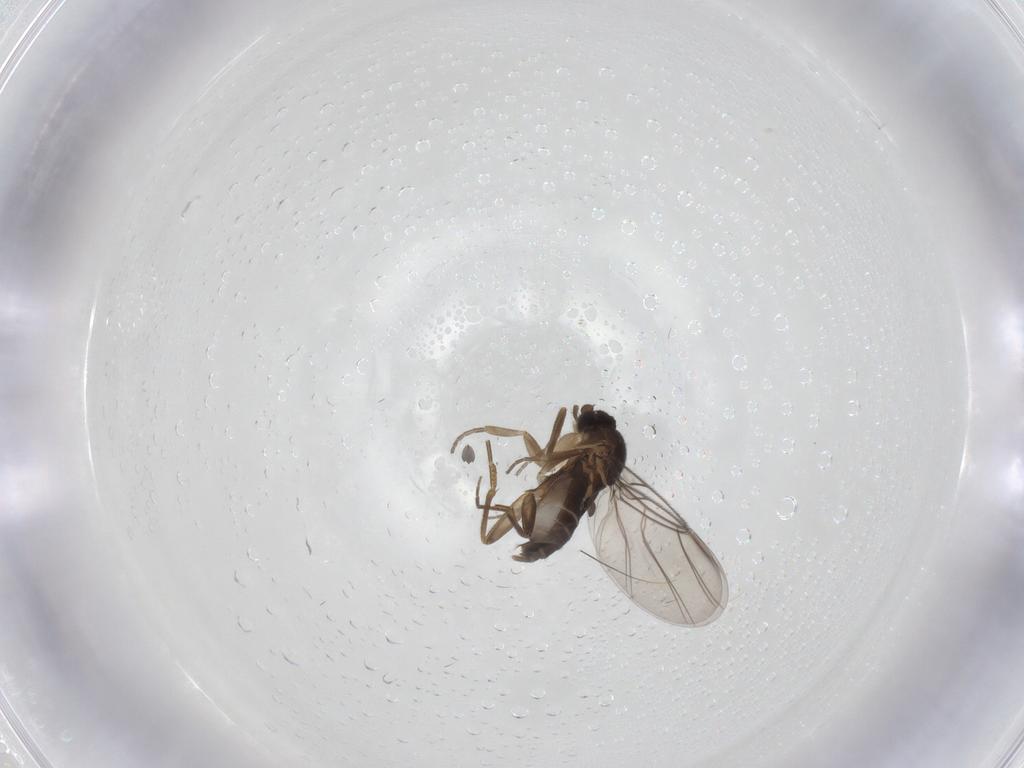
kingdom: Animalia
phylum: Arthropoda
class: Insecta
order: Diptera
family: Phoridae
